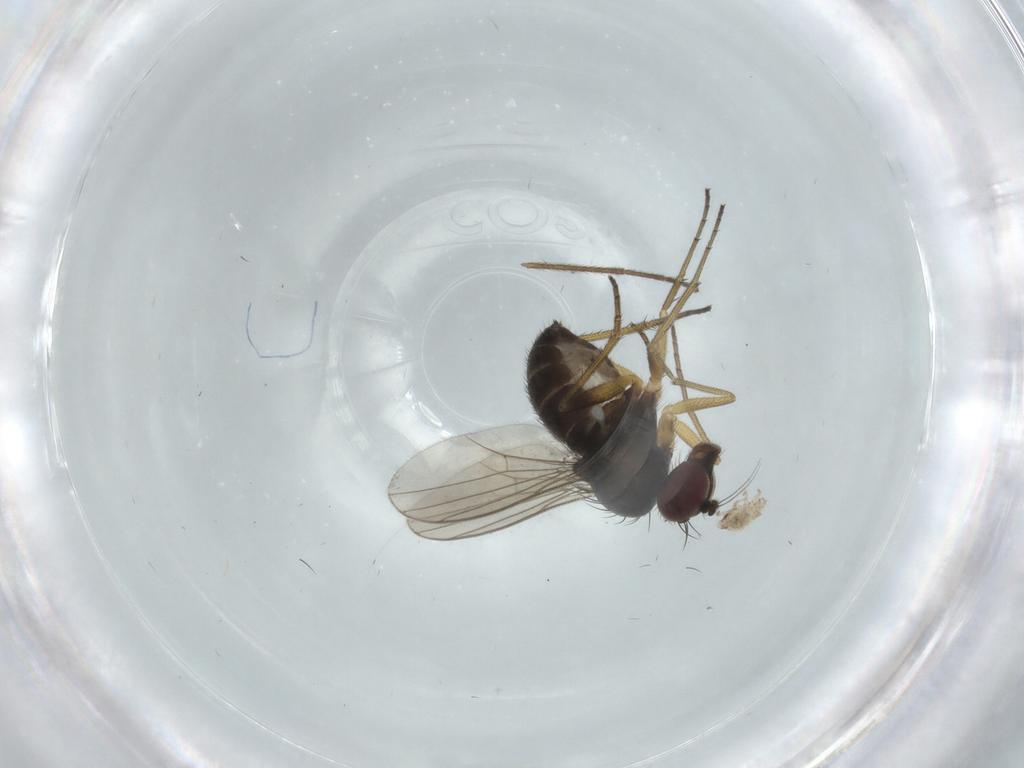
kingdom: Animalia
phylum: Arthropoda
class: Insecta
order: Diptera
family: Dolichopodidae
